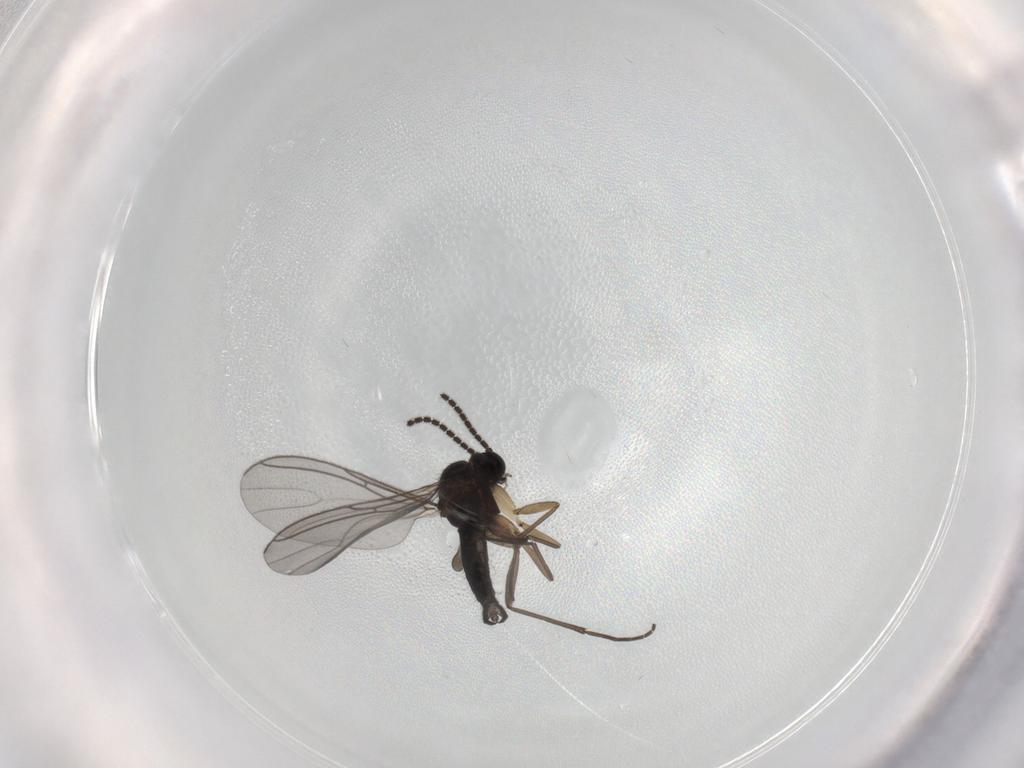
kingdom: Animalia
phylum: Arthropoda
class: Insecta
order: Diptera
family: Sciaridae
